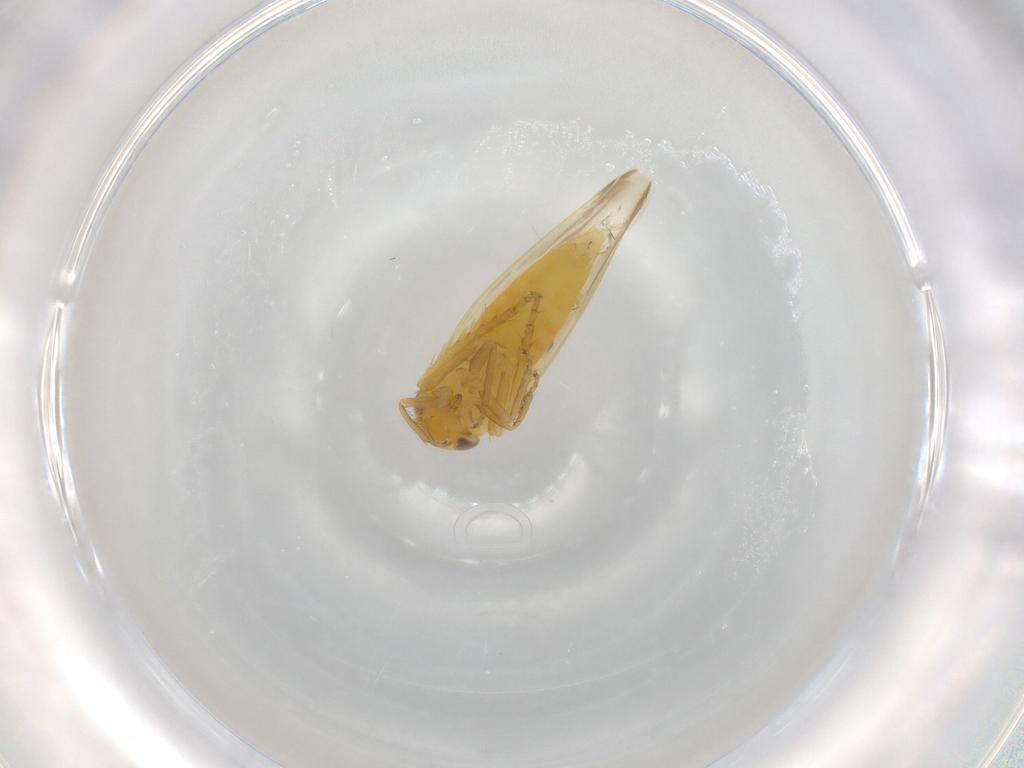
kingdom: Animalia
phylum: Arthropoda
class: Insecta
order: Hemiptera
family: Cicadellidae
